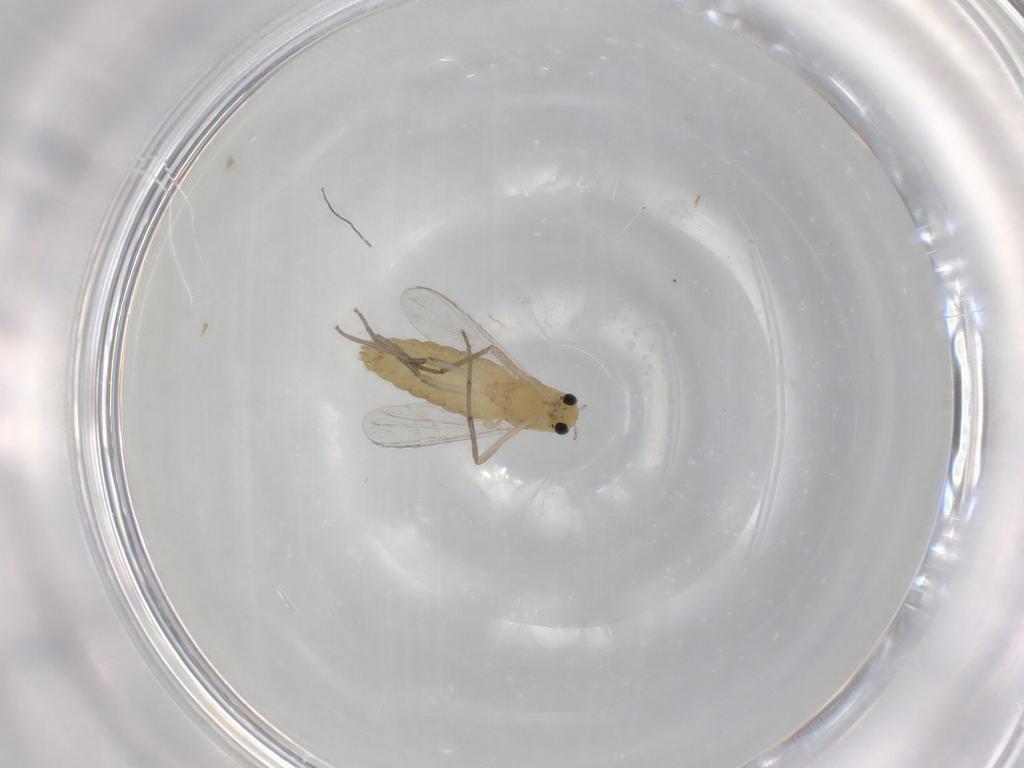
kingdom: Animalia
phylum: Arthropoda
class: Insecta
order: Diptera
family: Chironomidae
